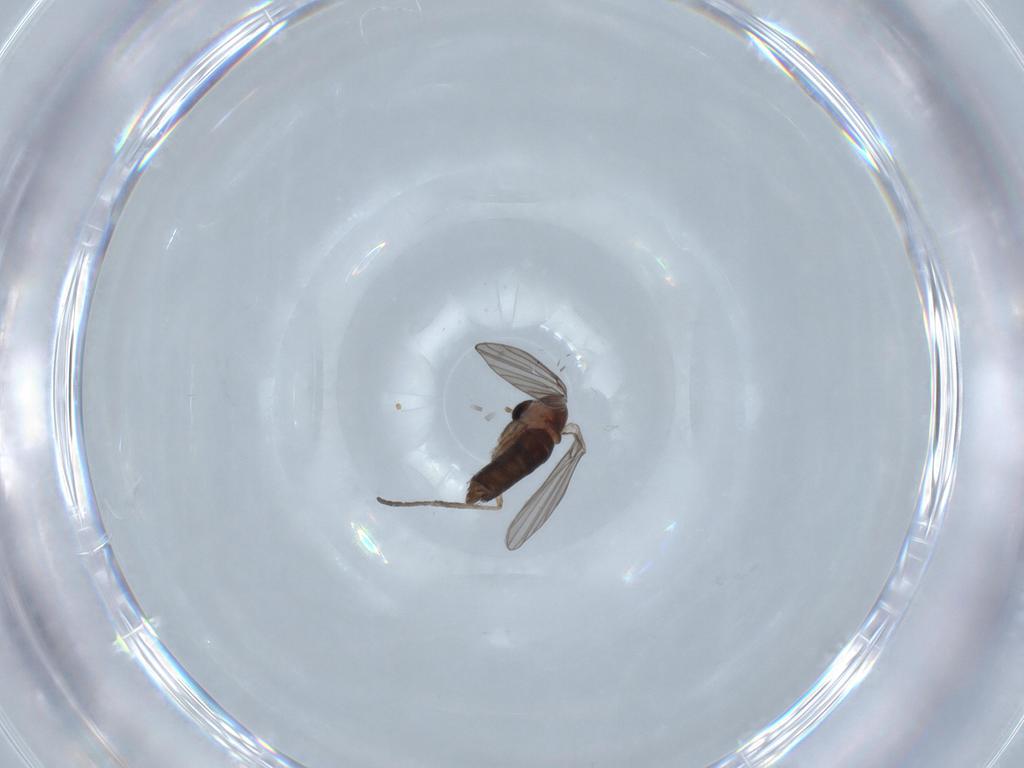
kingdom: Animalia
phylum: Arthropoda
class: Insecta
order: Diptera
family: Psychodidae
